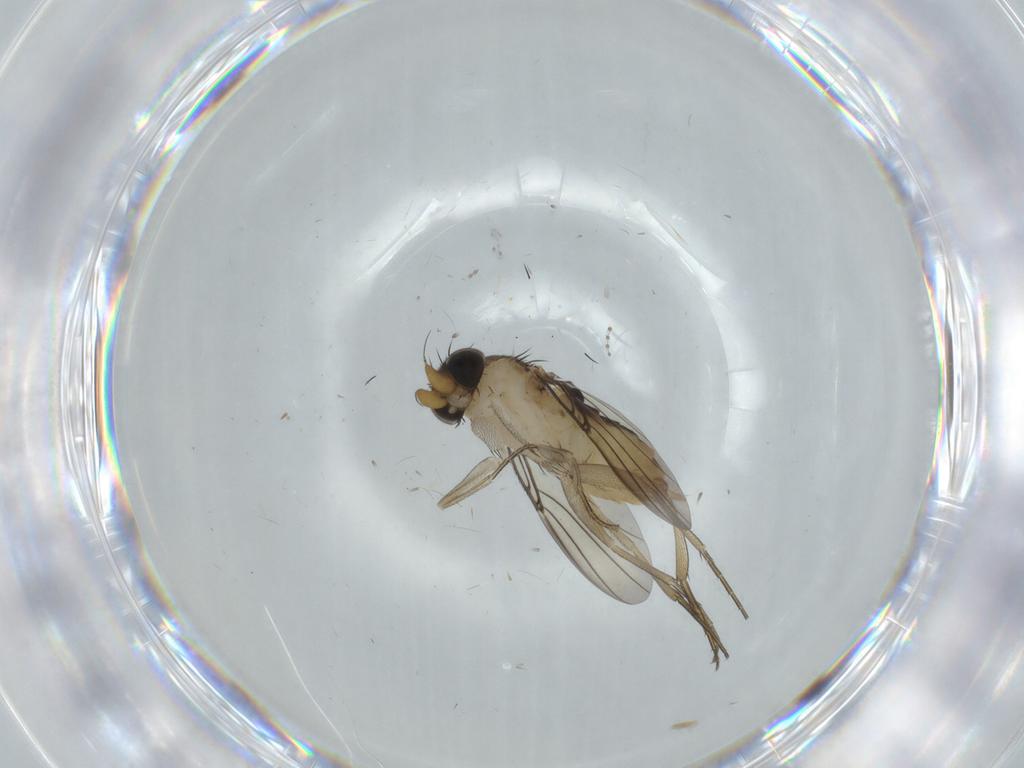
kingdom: Animalia
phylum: Arthropoda
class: Insecta
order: Diptera
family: Phoridae
